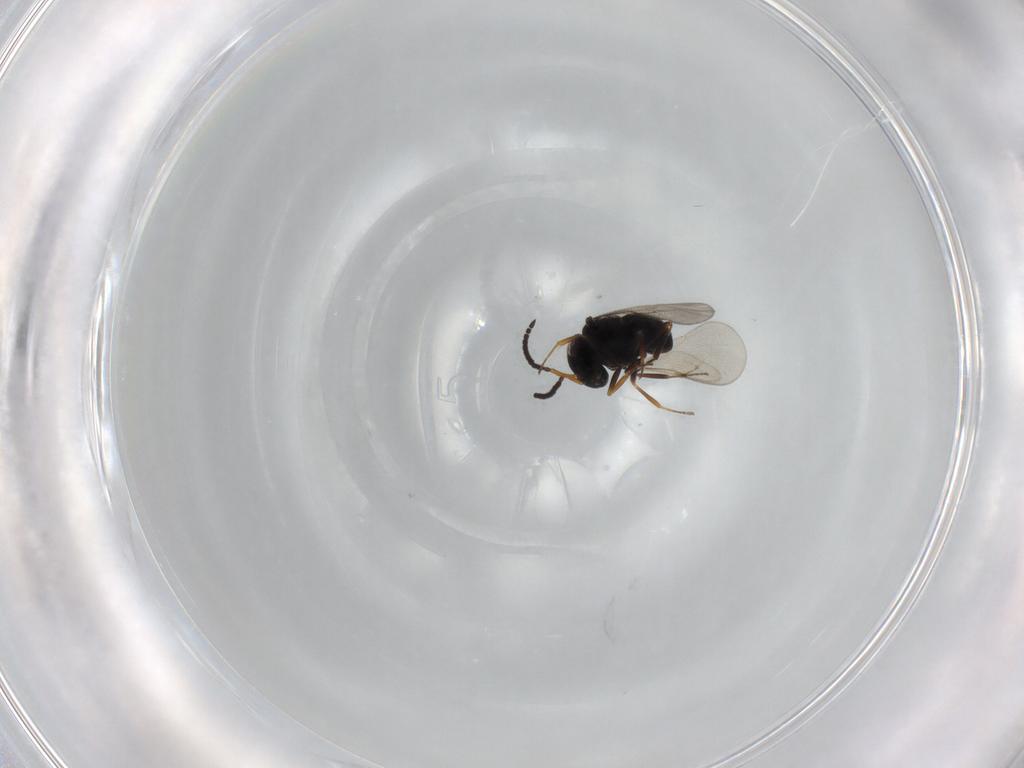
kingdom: Animalia
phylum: Arthropoda
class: Insecta
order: Hymenoptera
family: Scelionidae
